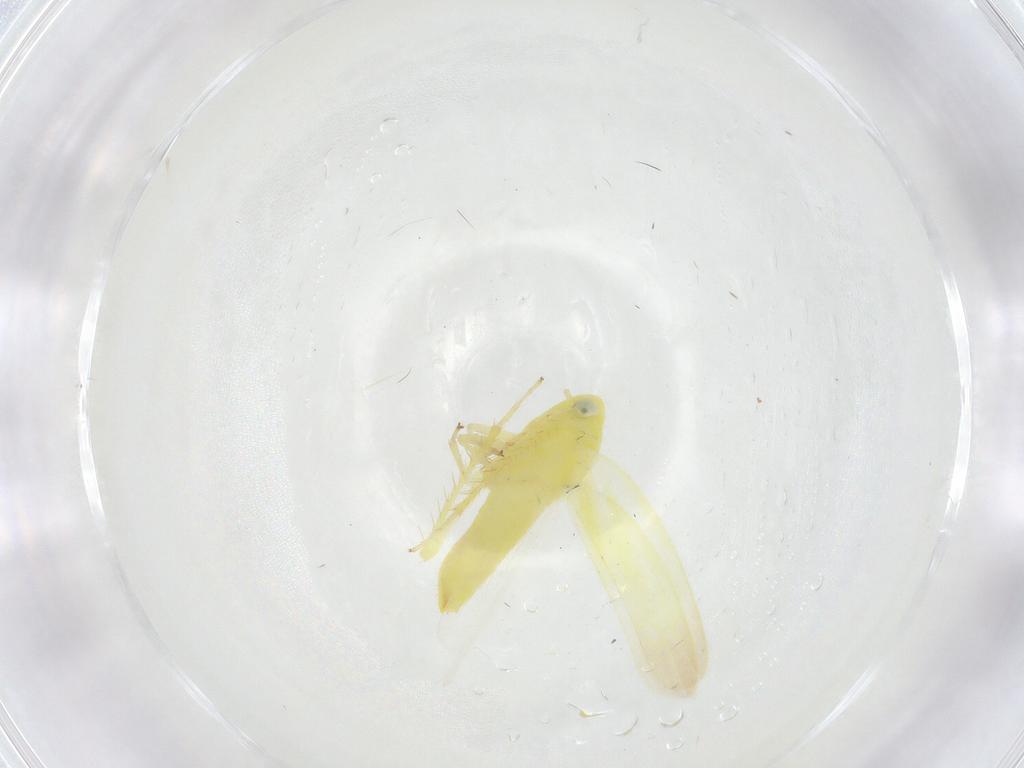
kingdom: Animalia
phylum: Arthropoda
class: Insecta
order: Hemiptera
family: Cicadellidae
